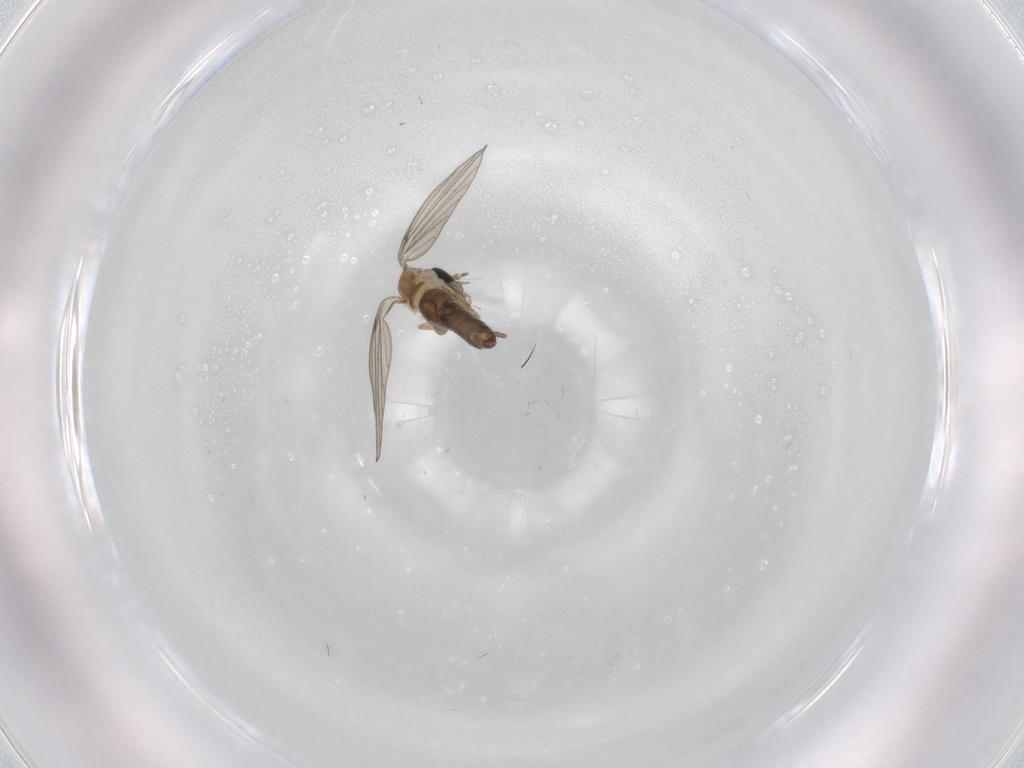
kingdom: Animalia
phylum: Arthropoda
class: Insecta
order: Diptera
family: Psychodidae
